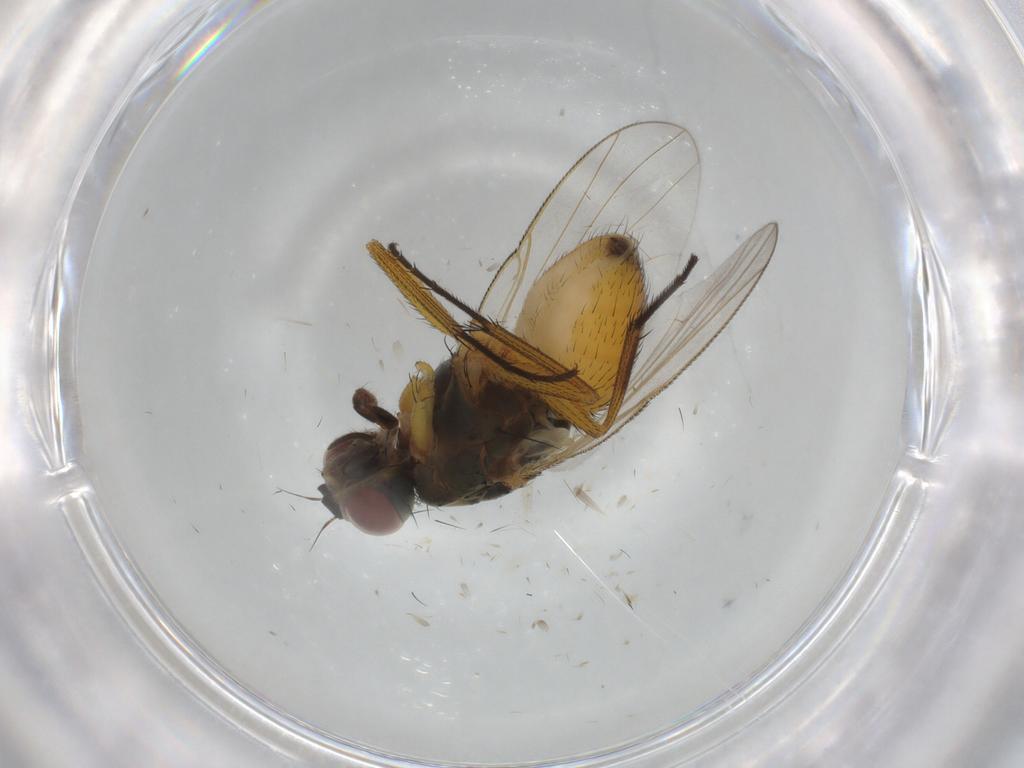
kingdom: Animalia
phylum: Arthropoda
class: Insecta
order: Diptera
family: Muscidae
